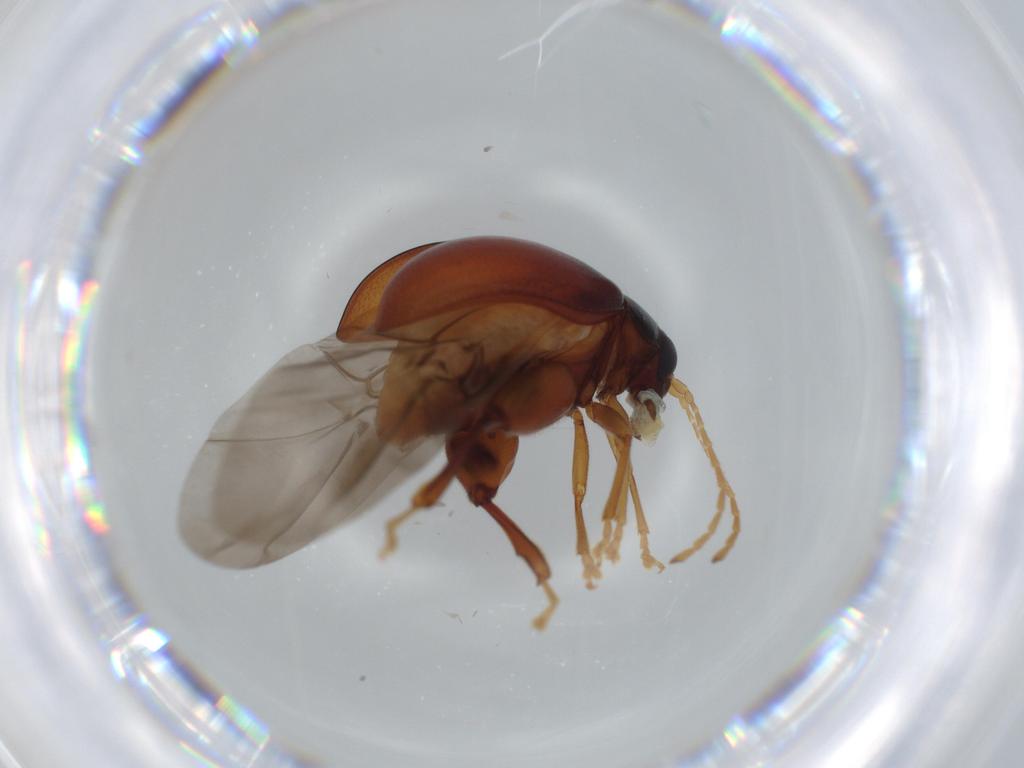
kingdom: Animalia
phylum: Arthropoda
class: Insecta
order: Coleoptera
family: Chrysomelidae
